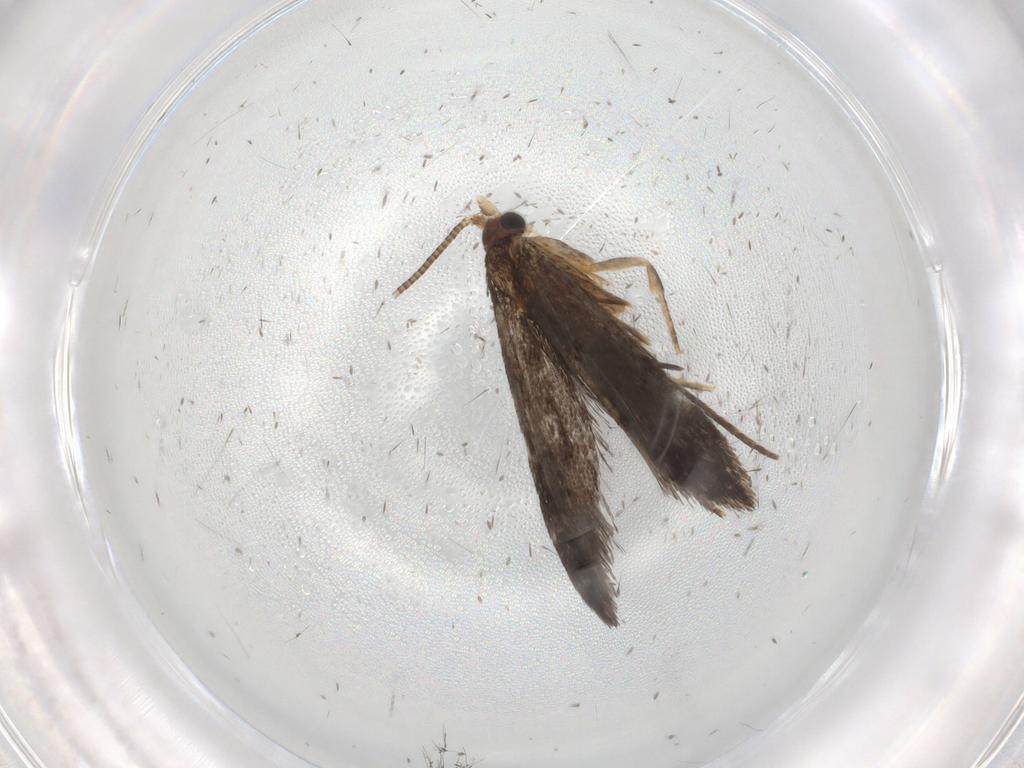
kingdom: Animalia
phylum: Arthropoda
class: Insecta
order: Lepidoptera
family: Nepticulidae
